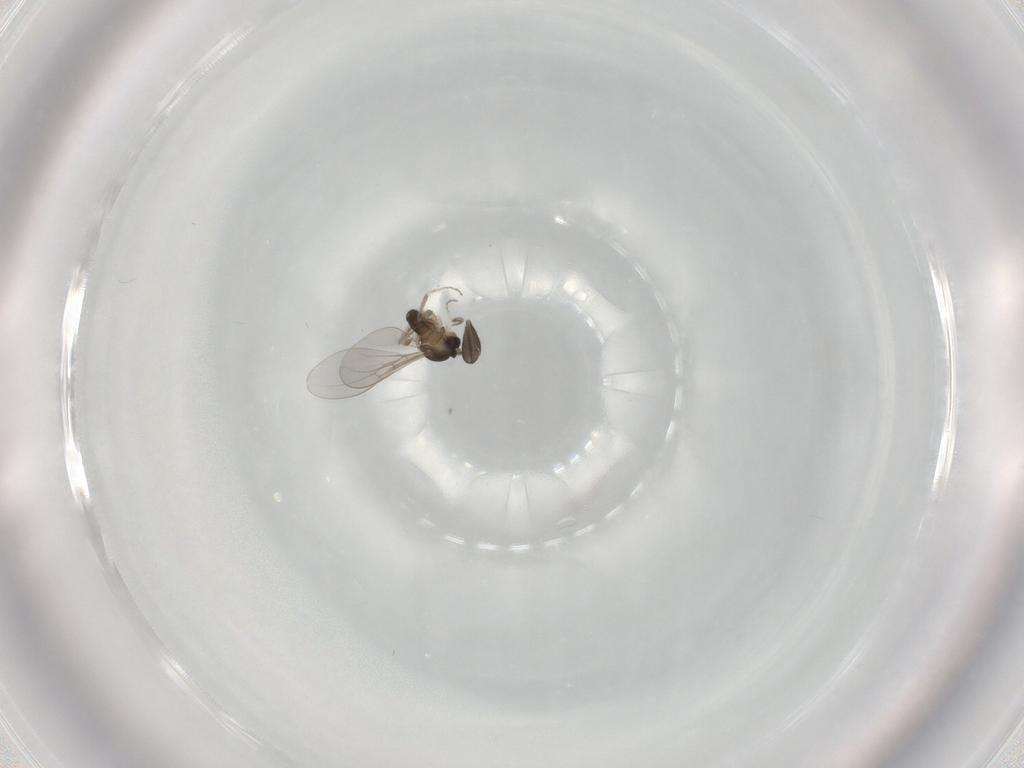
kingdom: Animalia
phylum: Arthropoda
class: Insecta
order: Diptera
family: Cecidomyiidae
